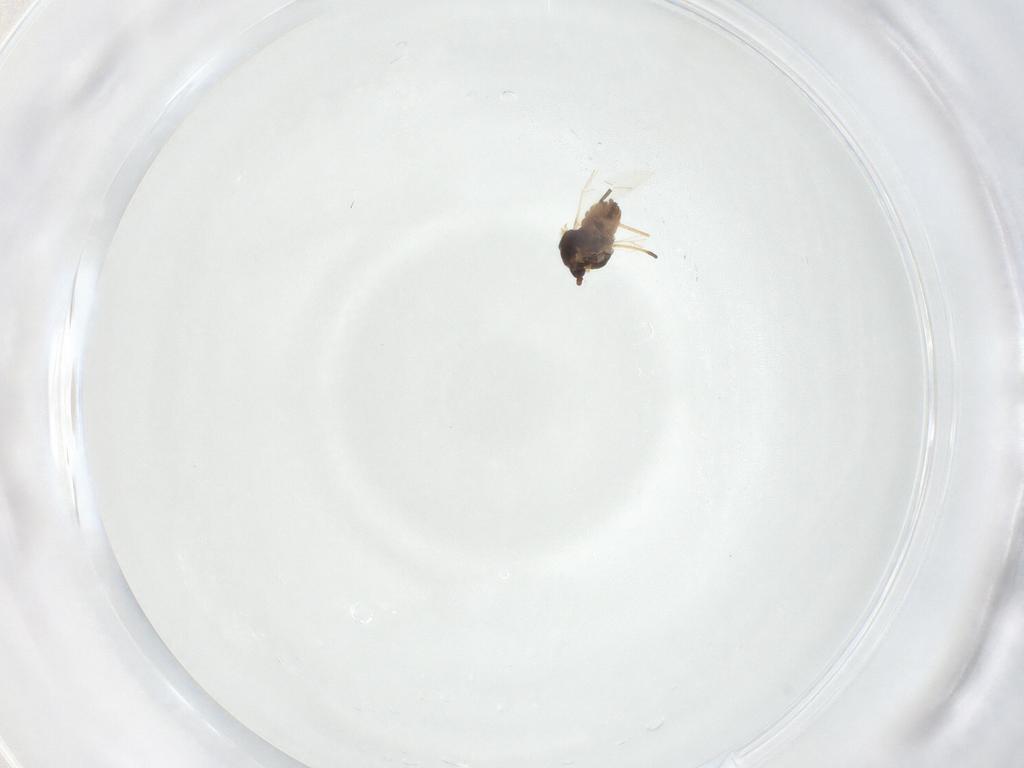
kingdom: Animalia
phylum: Arthropoda
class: Insecta
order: Hemiptera
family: Aphididae
